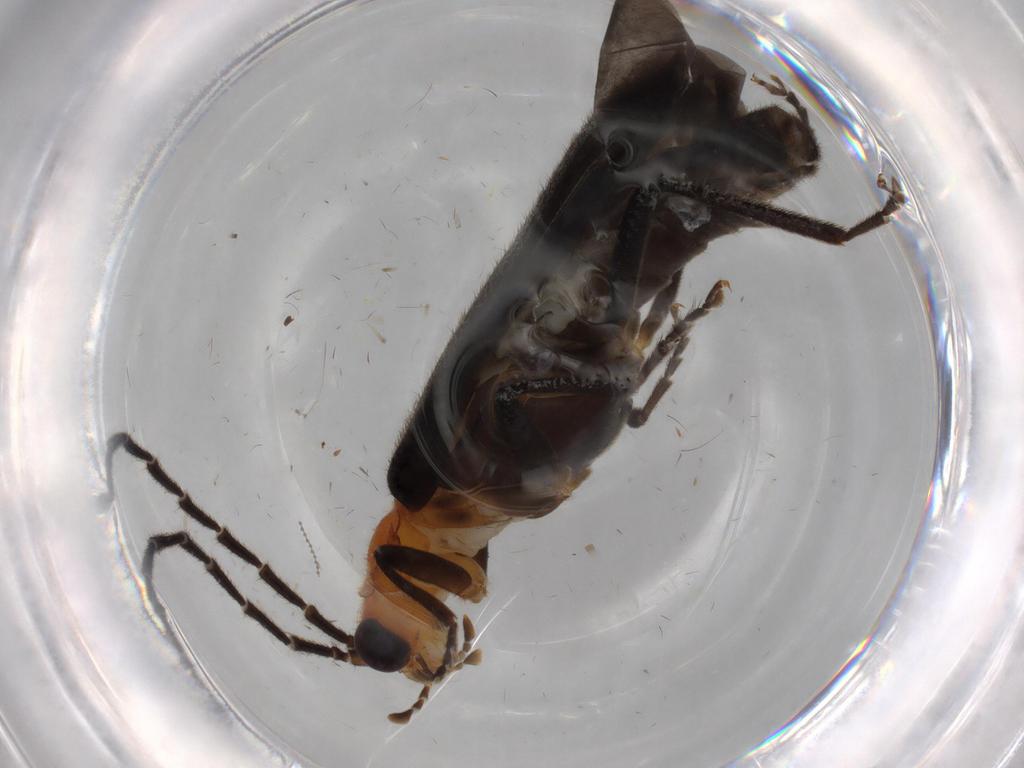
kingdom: Animalia
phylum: Arthropoda
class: Insecta
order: Coleoptera
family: Cantharidae
